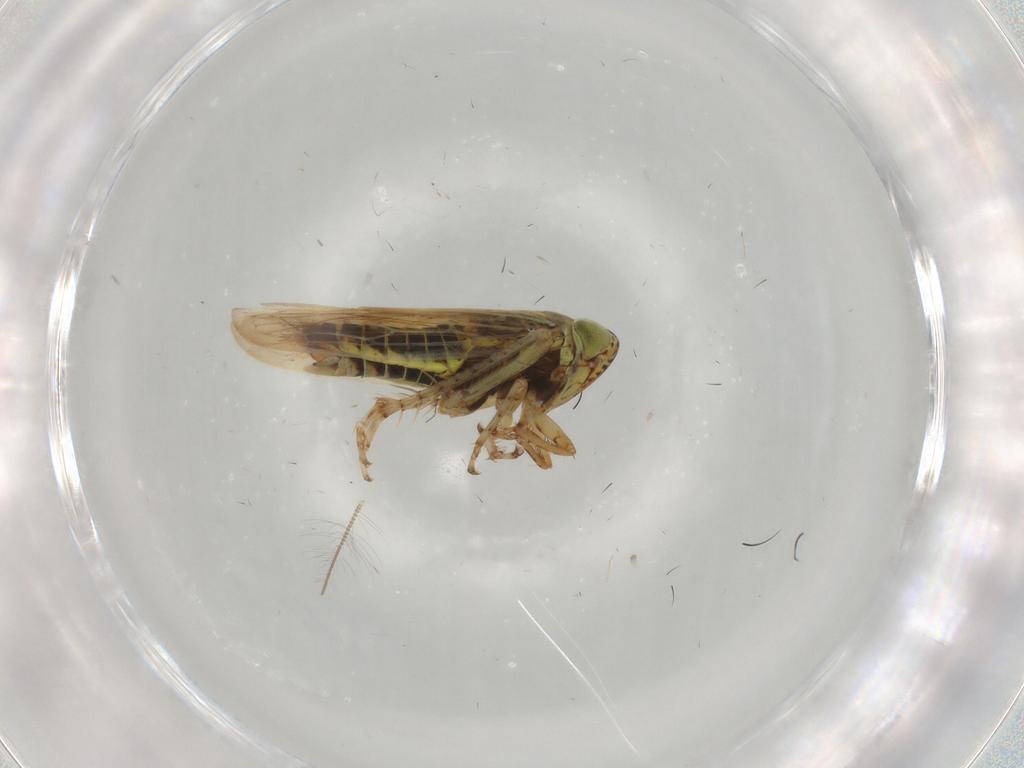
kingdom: Animalia
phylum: Arthropoda
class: Insecta
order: Hemiptera
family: Cicadellidae
